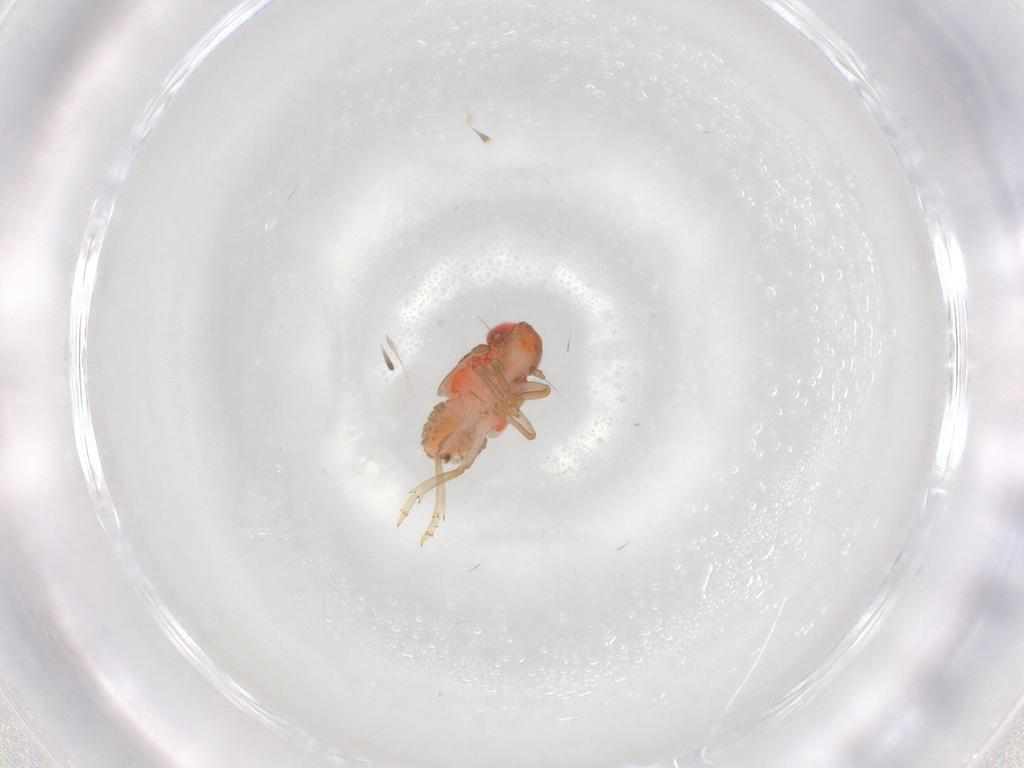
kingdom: Animalia
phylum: Arthropoda
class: Insecta
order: Hemiptera
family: Issidae
